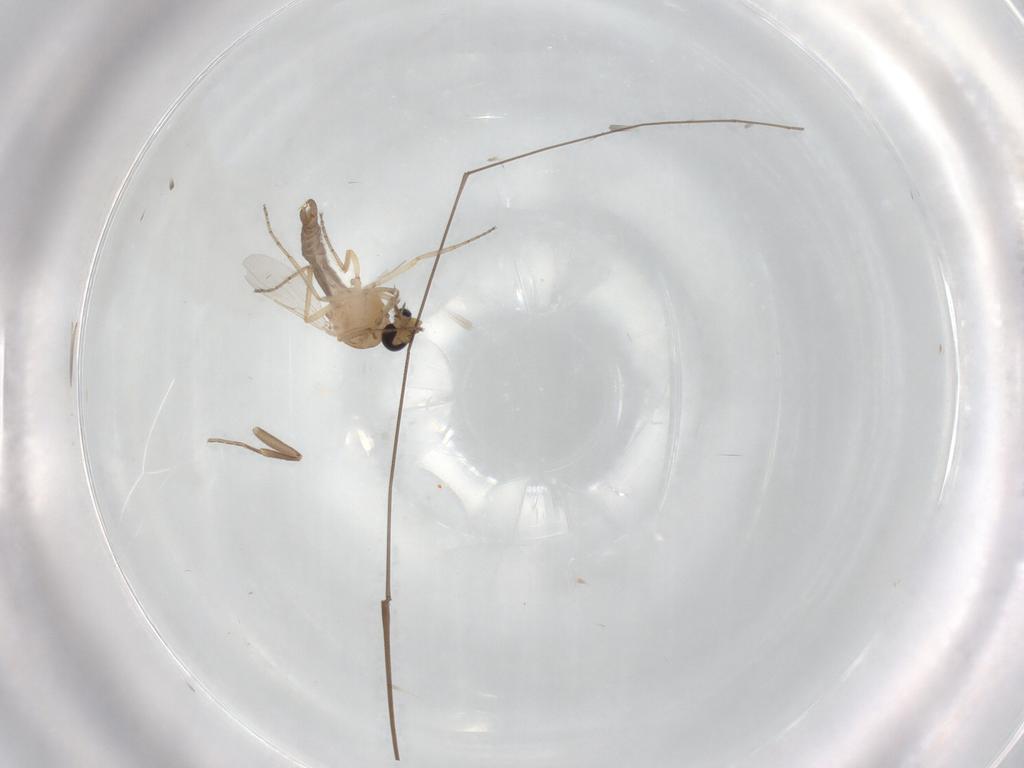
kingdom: Animalia
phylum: Arthropoda
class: Insecta
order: Diptera
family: Ceratopogonidae
